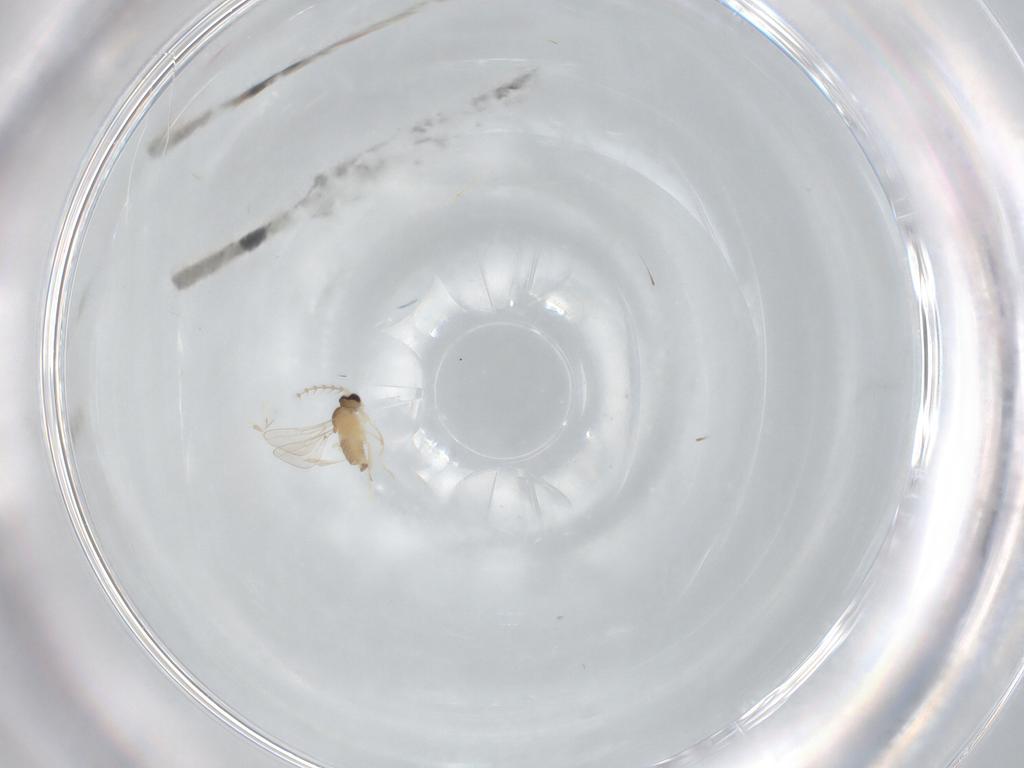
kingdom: Animalia
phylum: Arthropoda
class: Insecta
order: Diptera
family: Cecidomyiidae
